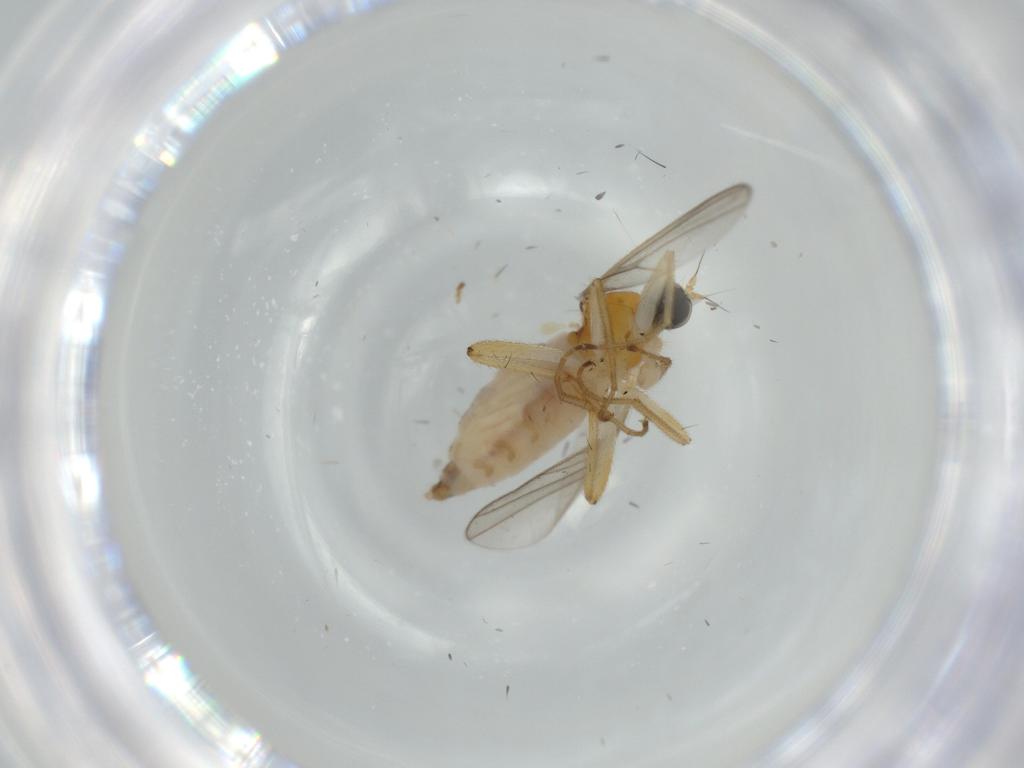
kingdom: Animalia
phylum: Arthropoda
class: Insecta
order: Diptera
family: Hybotidae
